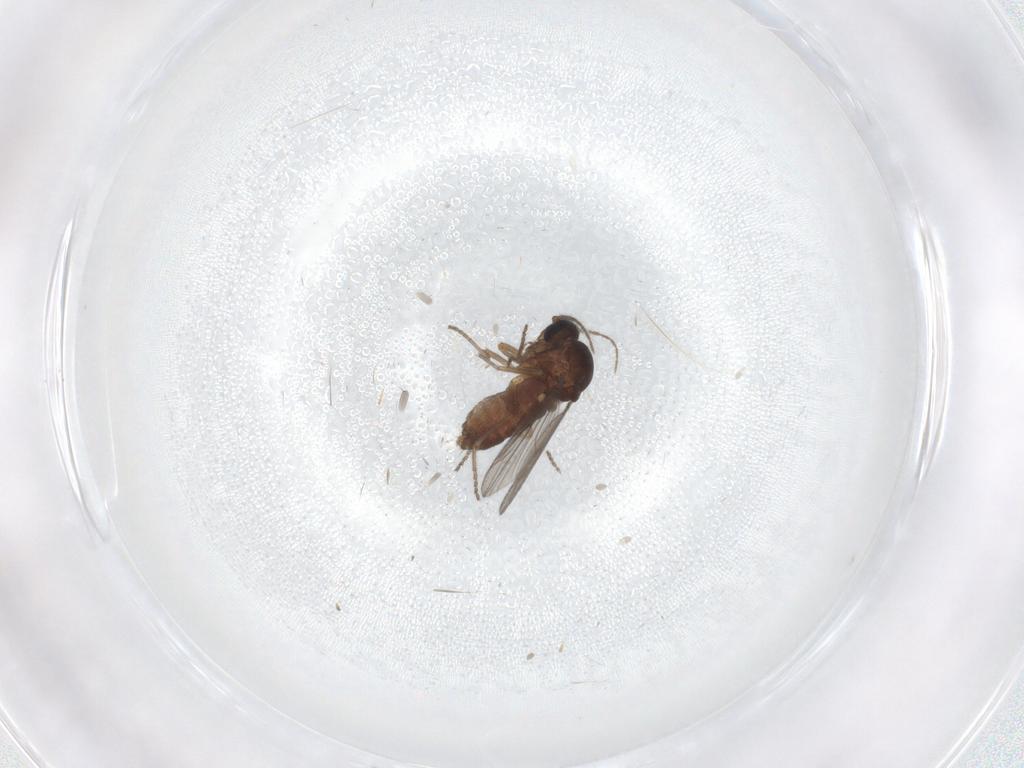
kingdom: Animalia
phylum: Arthropoda
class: Insecta
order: Diptera
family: Ceratopogonidae
